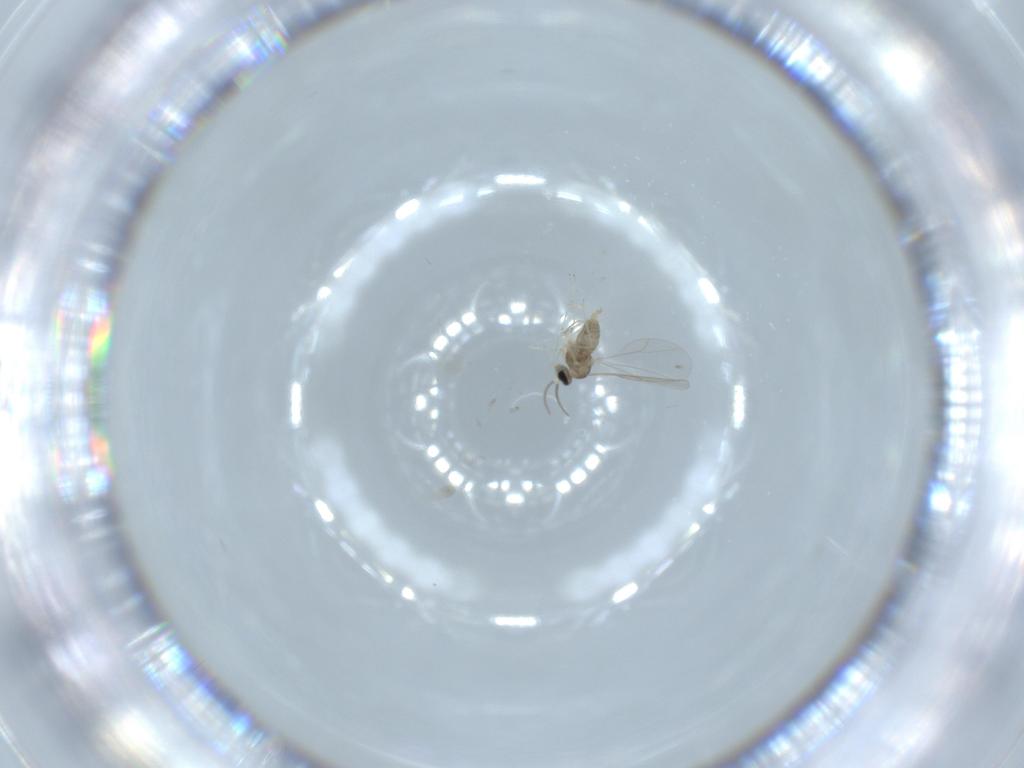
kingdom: Animalia
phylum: Arthropoda
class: Insecta
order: Diptera
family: Cecidomyiidae
